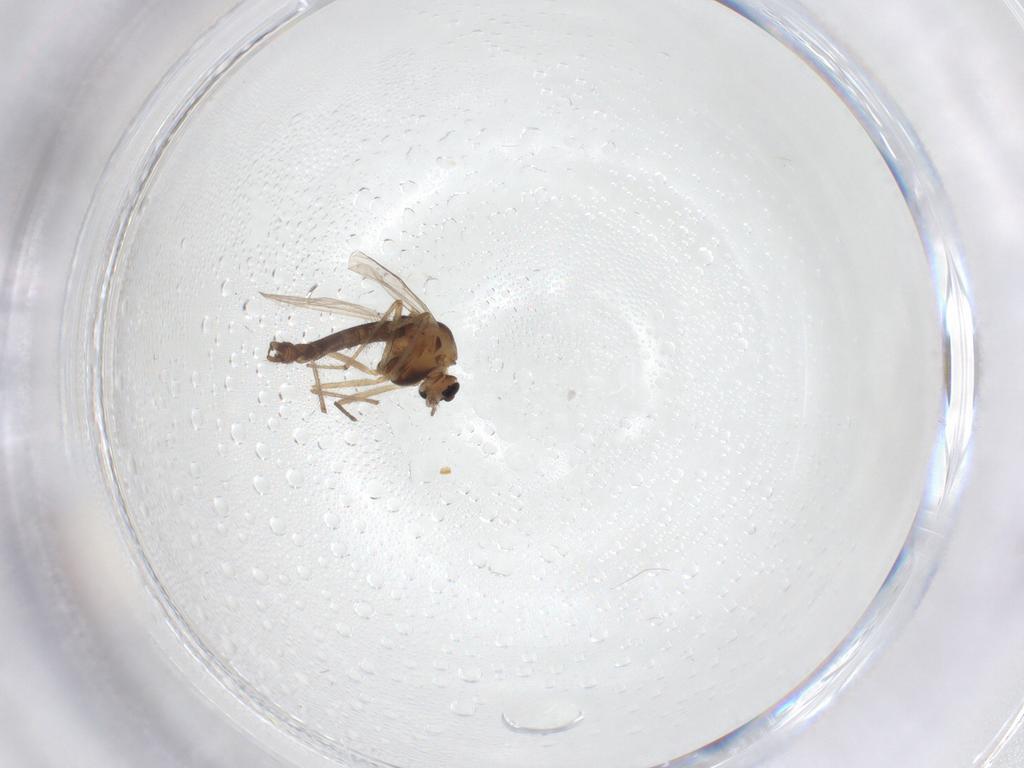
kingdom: Animalia
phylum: Arthropoda
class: Insecta
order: Diptera
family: Chironomidae
